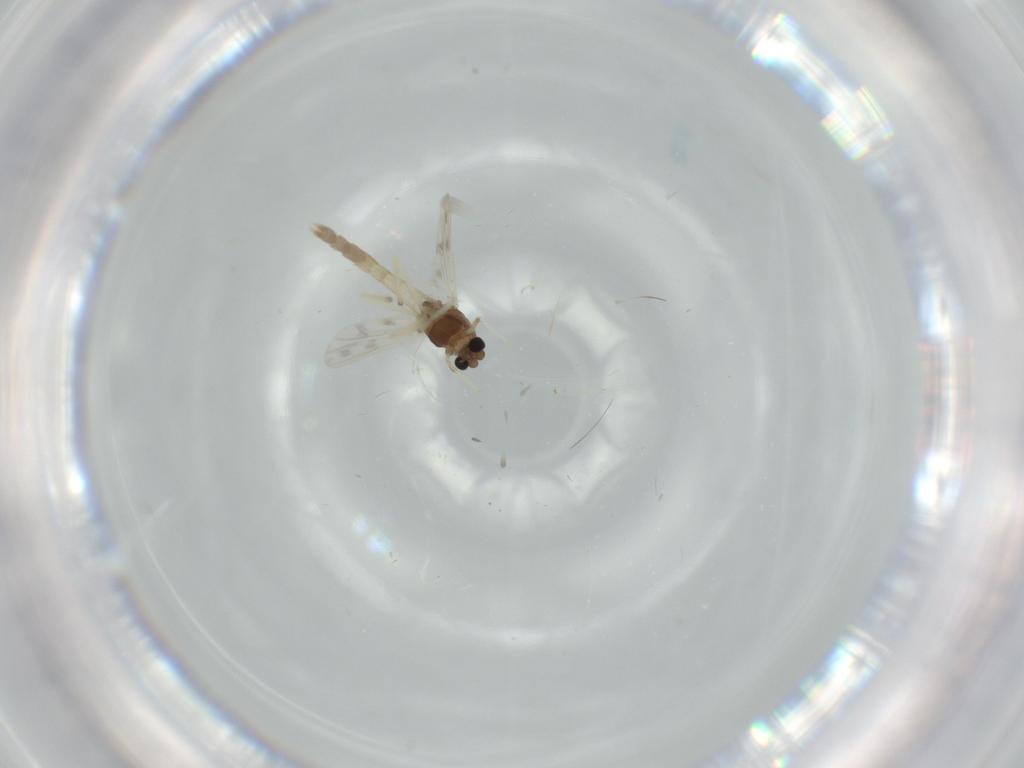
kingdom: Animalia
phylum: Arthropoda
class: Insecta
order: Diptera
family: Chironomidae
